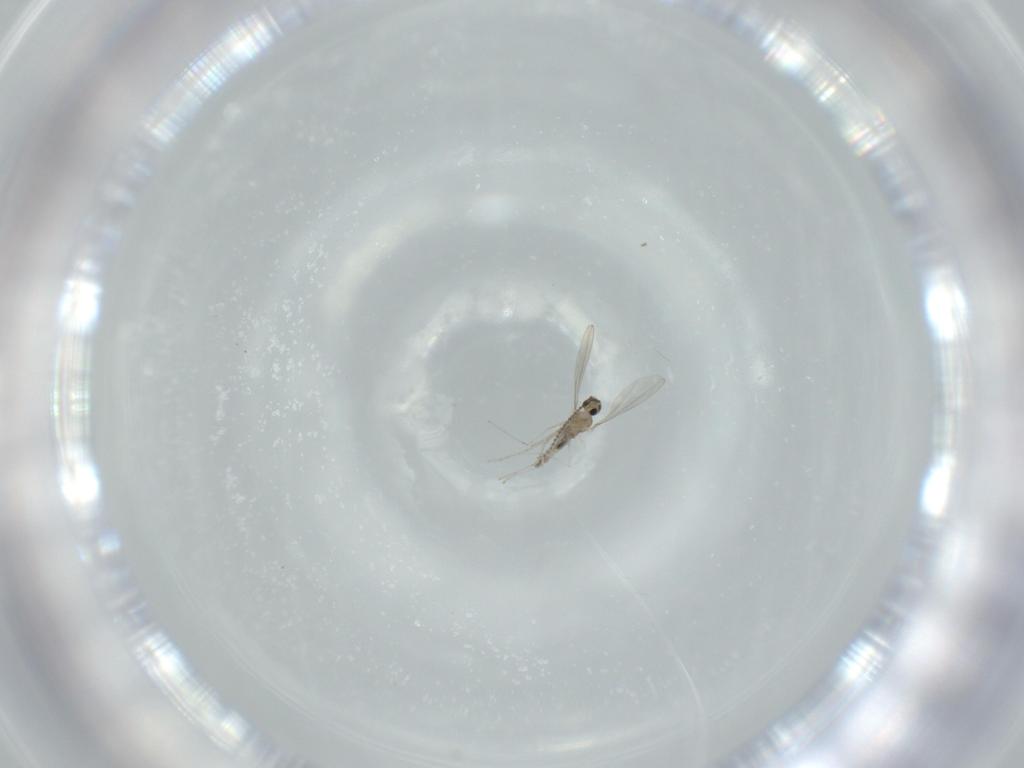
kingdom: Animalia
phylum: Arthropoda
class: Insecta
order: Diptera
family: Cecidomyiidae
